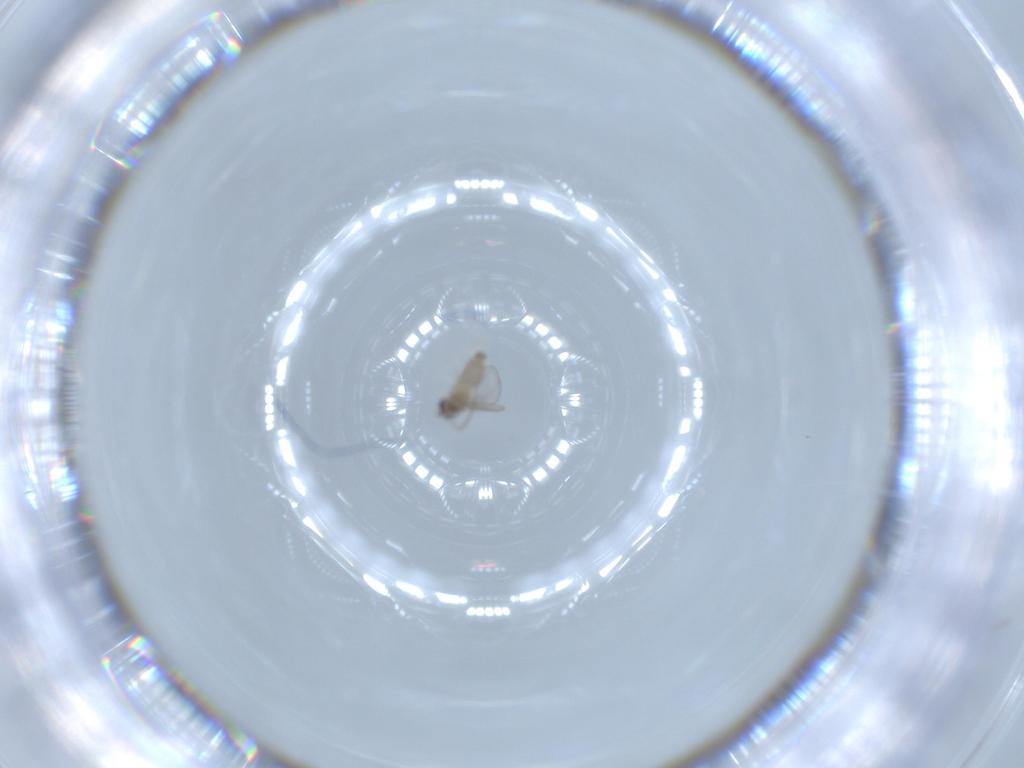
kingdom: Animalia
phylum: Arthropoda
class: Insecta
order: Diptera
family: Cecidomyiidae
